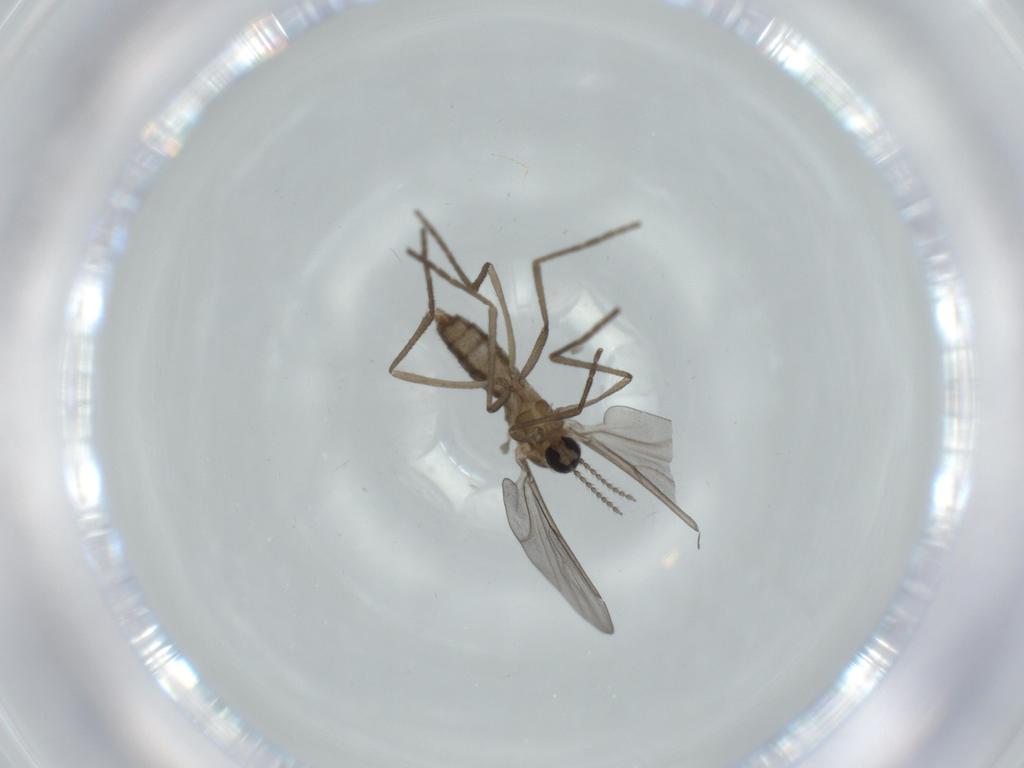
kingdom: Animalia
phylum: Arthropoda
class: Insecta
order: Diptera
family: Cecidomyiidae
